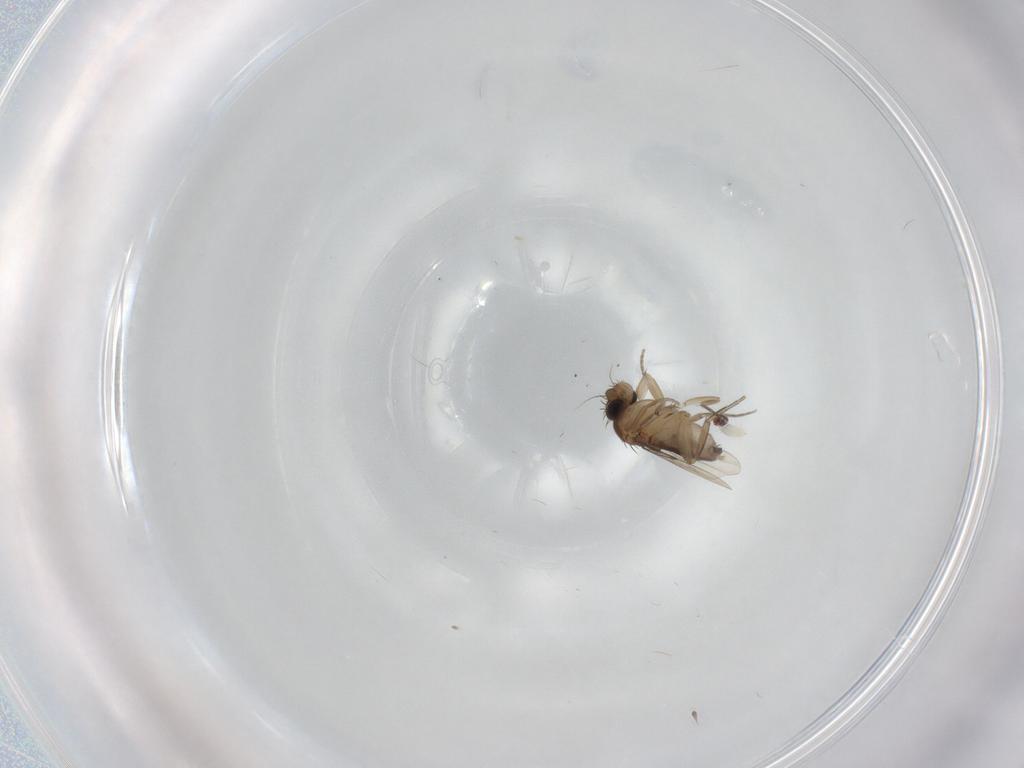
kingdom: Animalia
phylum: Arthropoda
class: Insecta
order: Diptera
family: Phoridae
